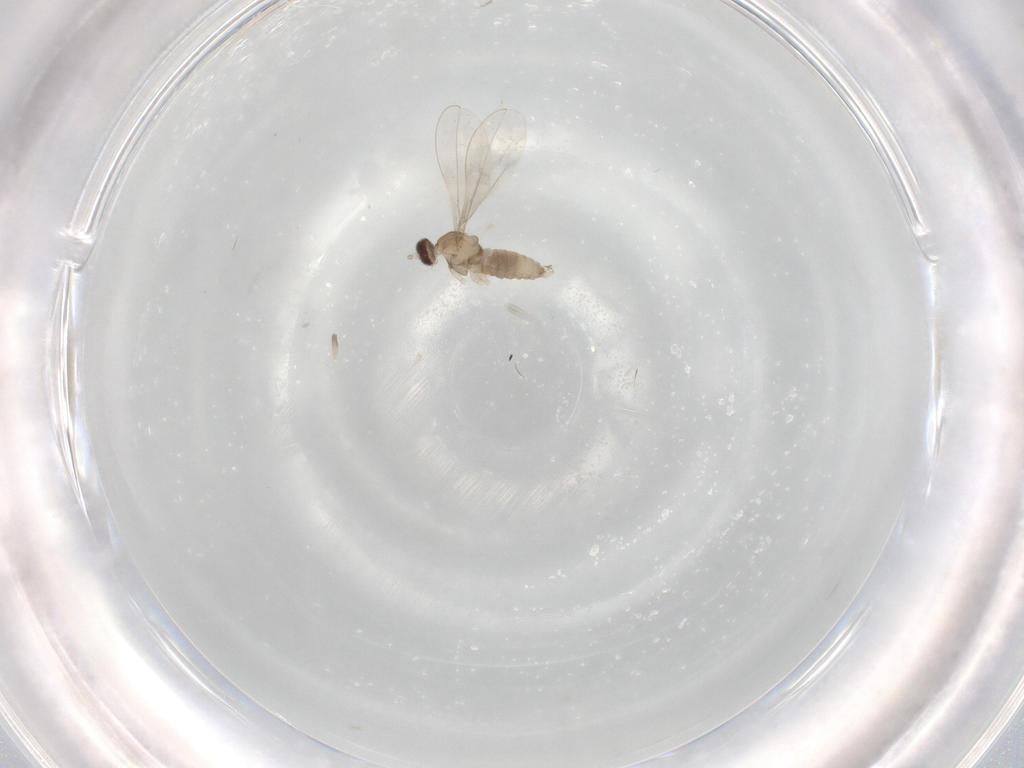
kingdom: Animalia
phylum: Arthropoda
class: Insecta
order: Diptera
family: Cecidomyiidae
